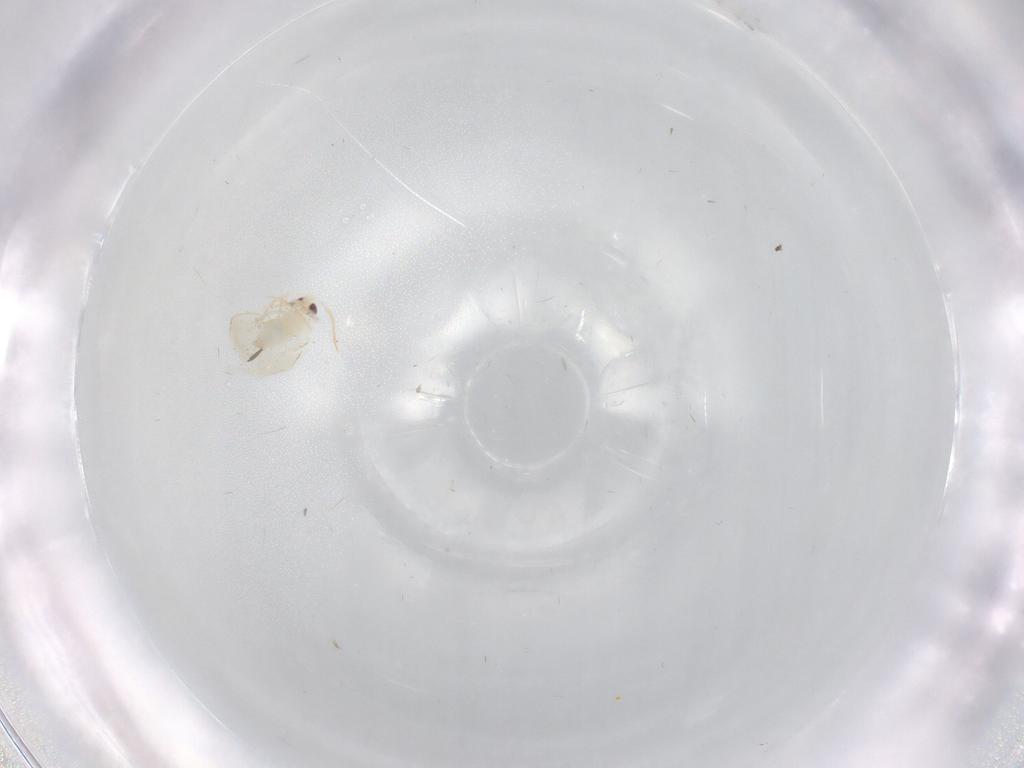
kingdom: Animalia
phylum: Arthropoda
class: Insecta
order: Hemiptera
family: Aleyrodidae
